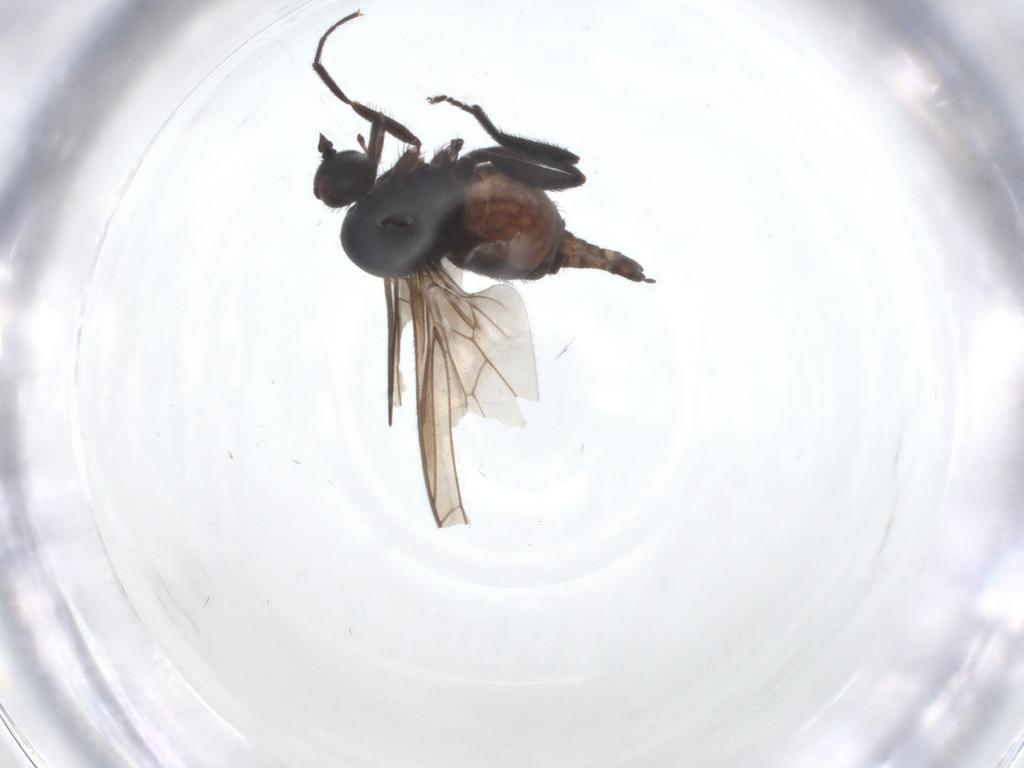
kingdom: Animalia
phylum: Arthropoda
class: Insecta
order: Diptera
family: Empididae
